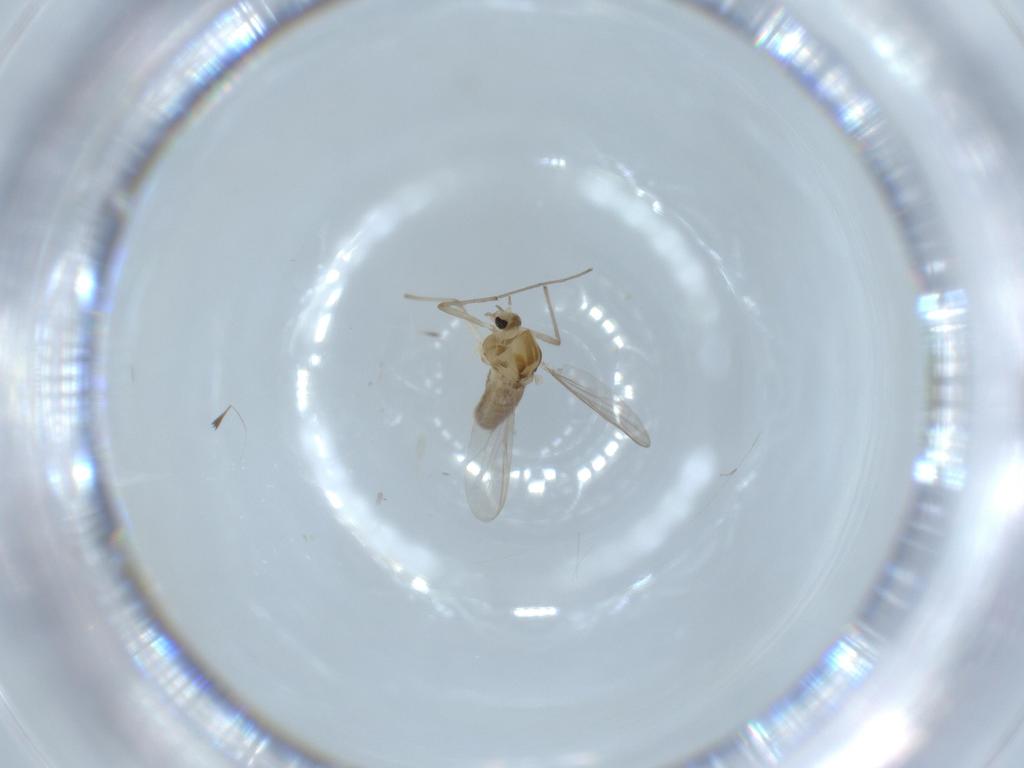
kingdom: Animalia
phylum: Arthropoda
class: Insecta
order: Diptera
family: Chironomidae
